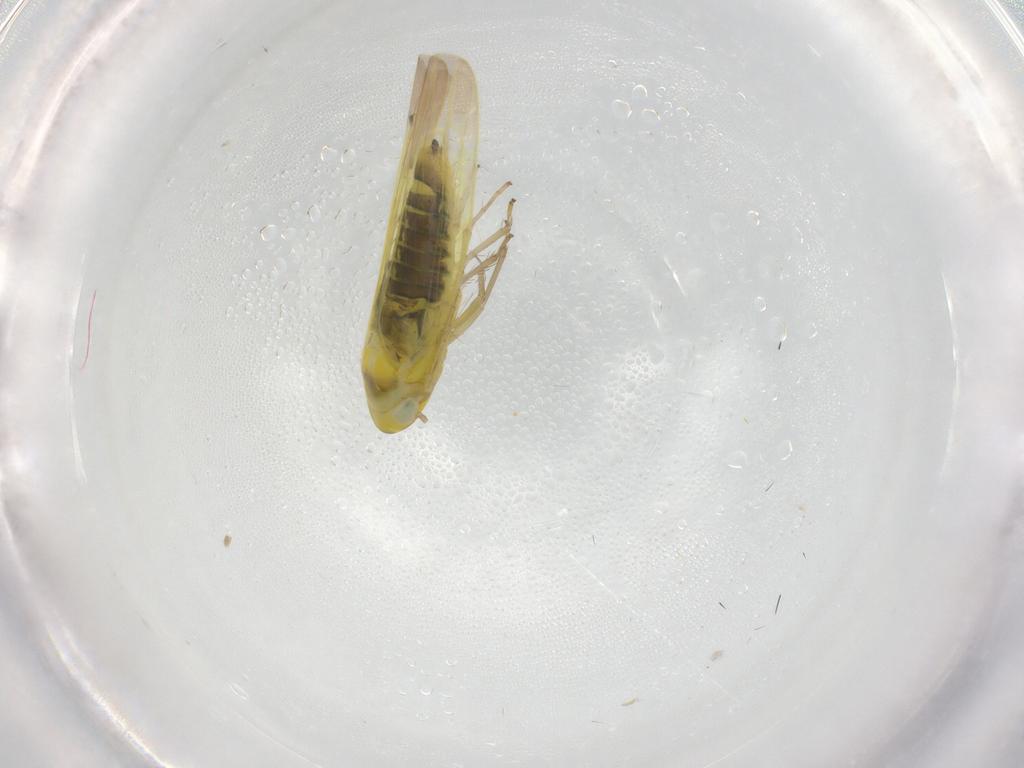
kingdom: Animalia
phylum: Arthropoda
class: Insecta
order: Hemiptera
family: Cicadellidae
